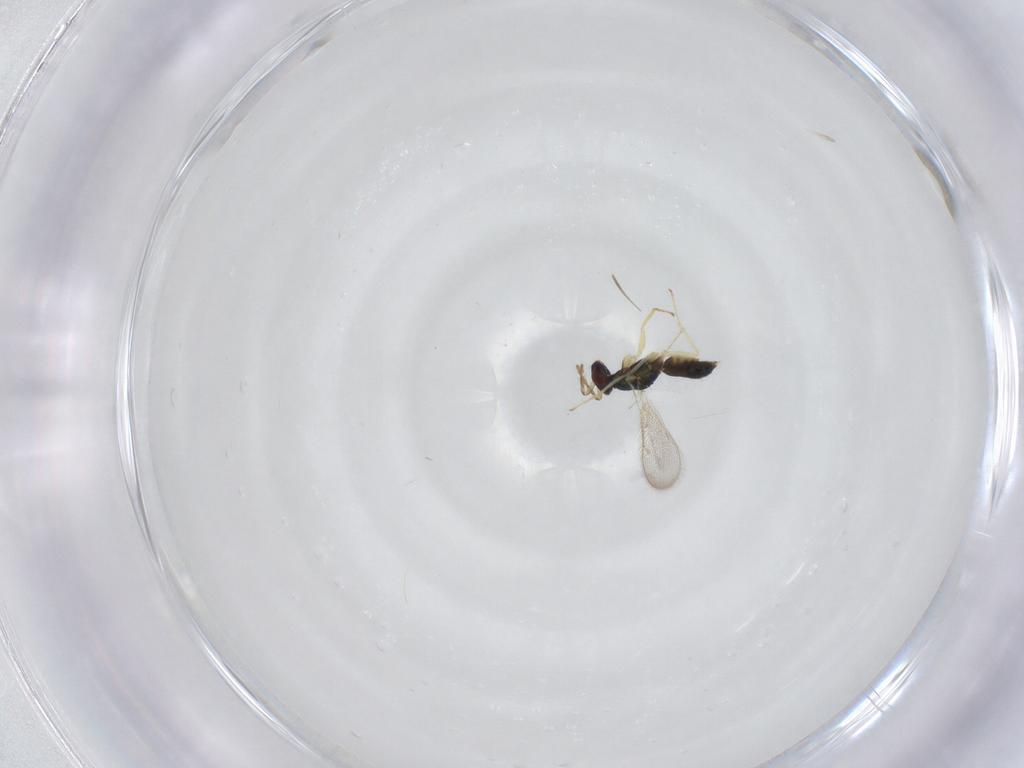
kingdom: Animalia
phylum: Arthropoda
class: Insecta
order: Hymenoptera
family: Eulophidae
